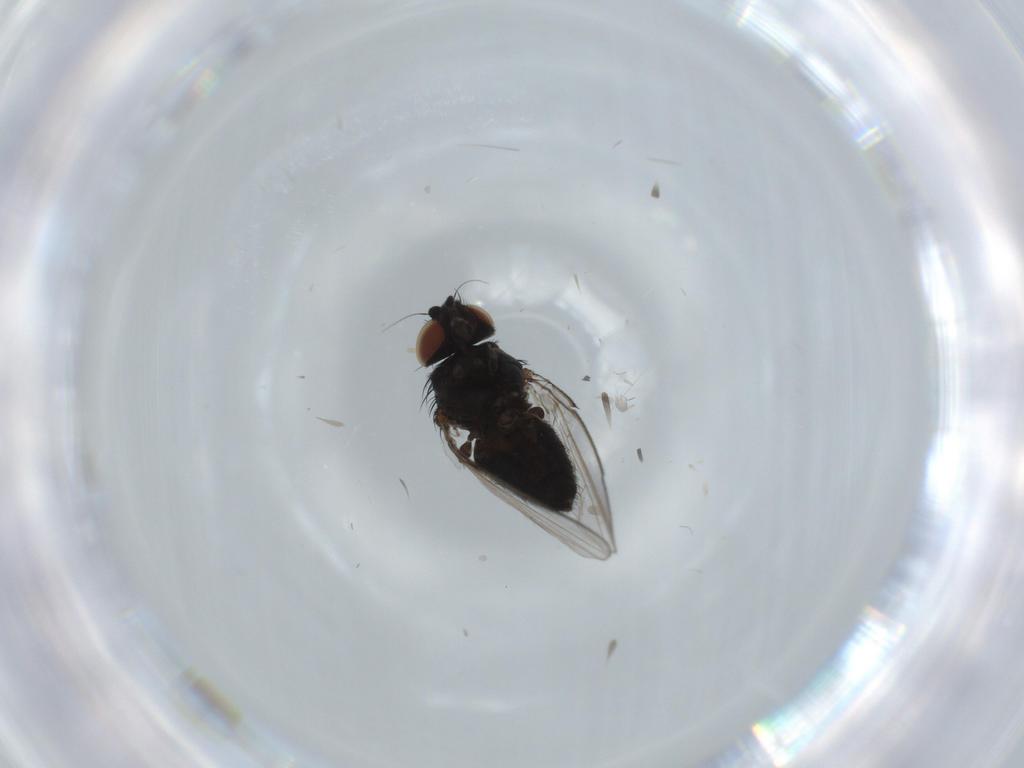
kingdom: Animalia
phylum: Arthropoda
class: Insecta
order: Diptera
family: Milichiidae
